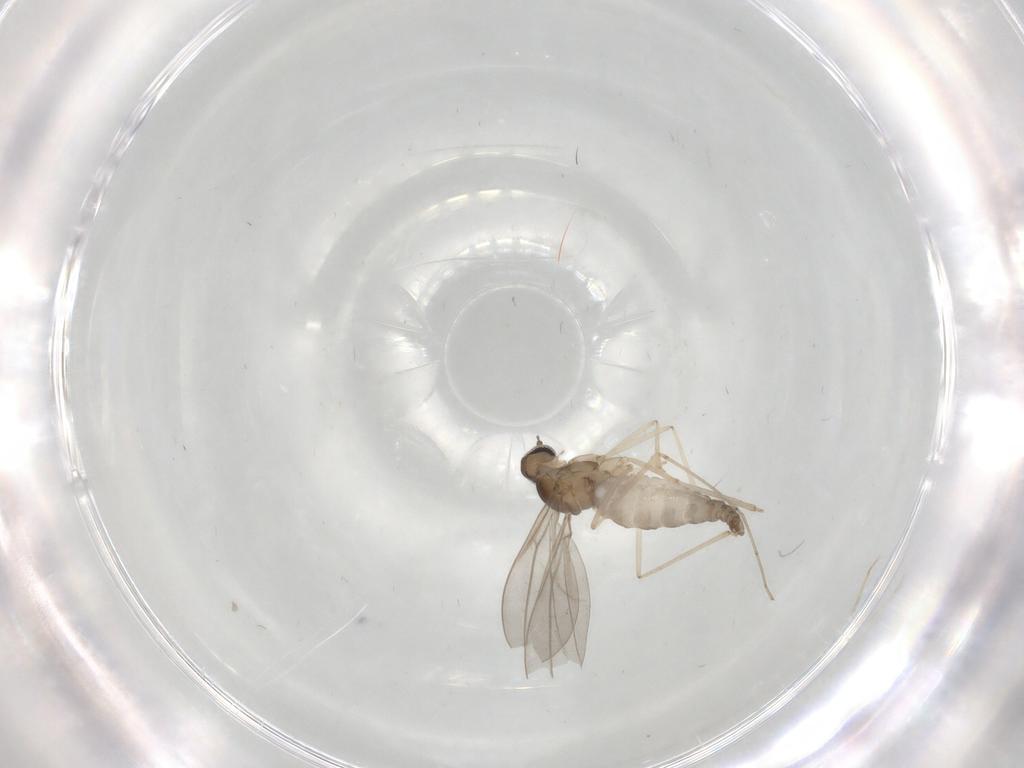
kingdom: Animalia
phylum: Arthropoda
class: Insecta
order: Diptera
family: Cecidomyiidae
